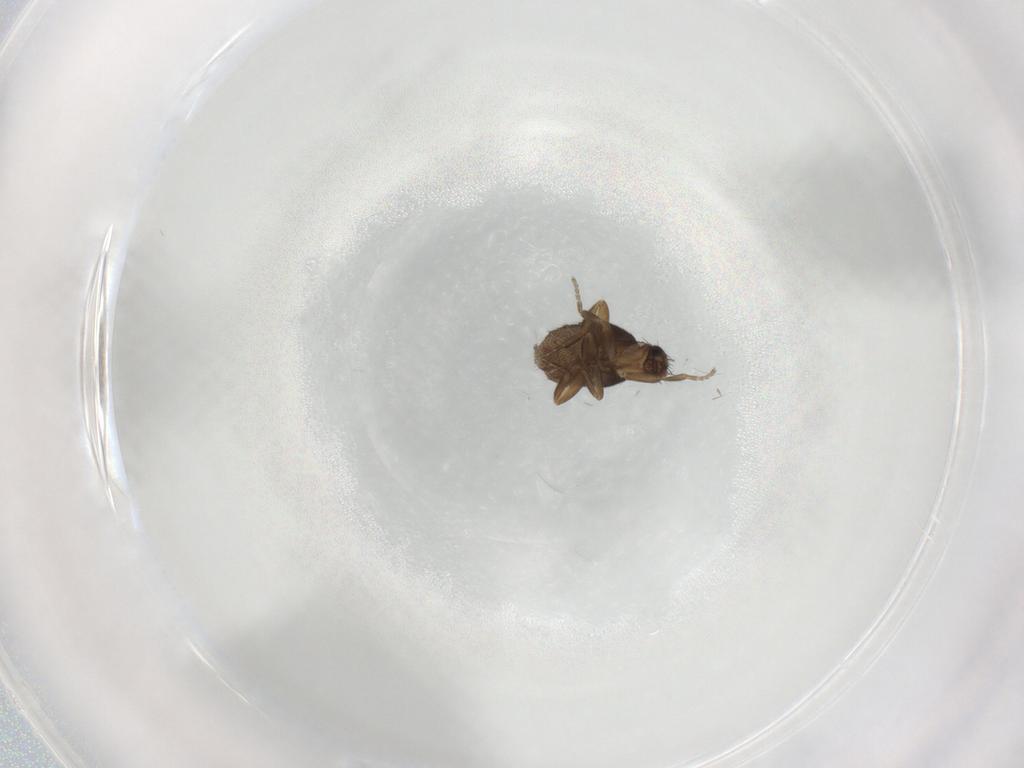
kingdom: Animalia
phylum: Arthropoda
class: Insecta
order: Diptera
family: Phoridae
